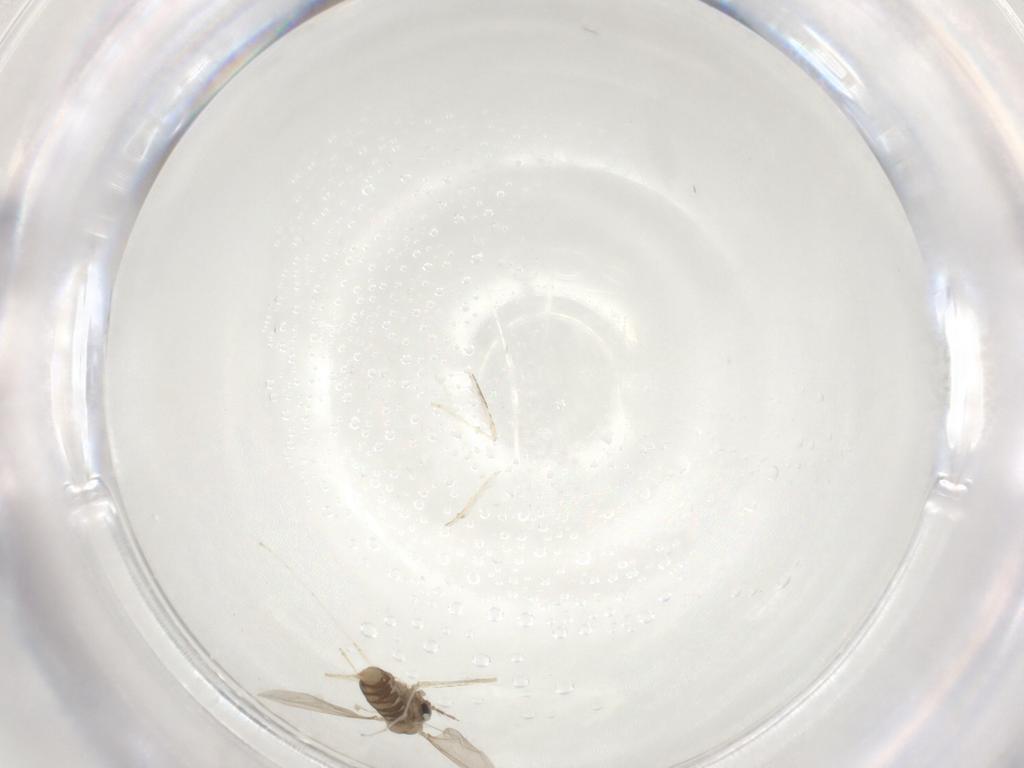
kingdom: Animalia
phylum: Arthropoda
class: Insecta
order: Diptera
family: Cecidomyiidae
